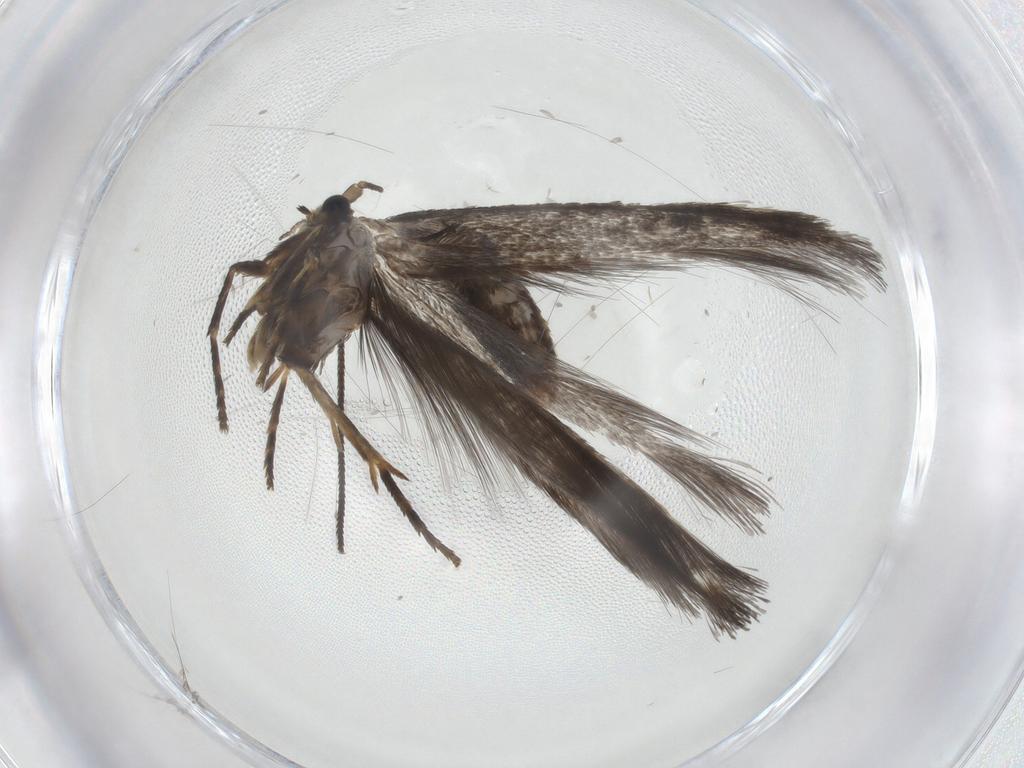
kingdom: Animalia
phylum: Arthropoda
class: Insecta
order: Lepidoptera
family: Nepticulidae
